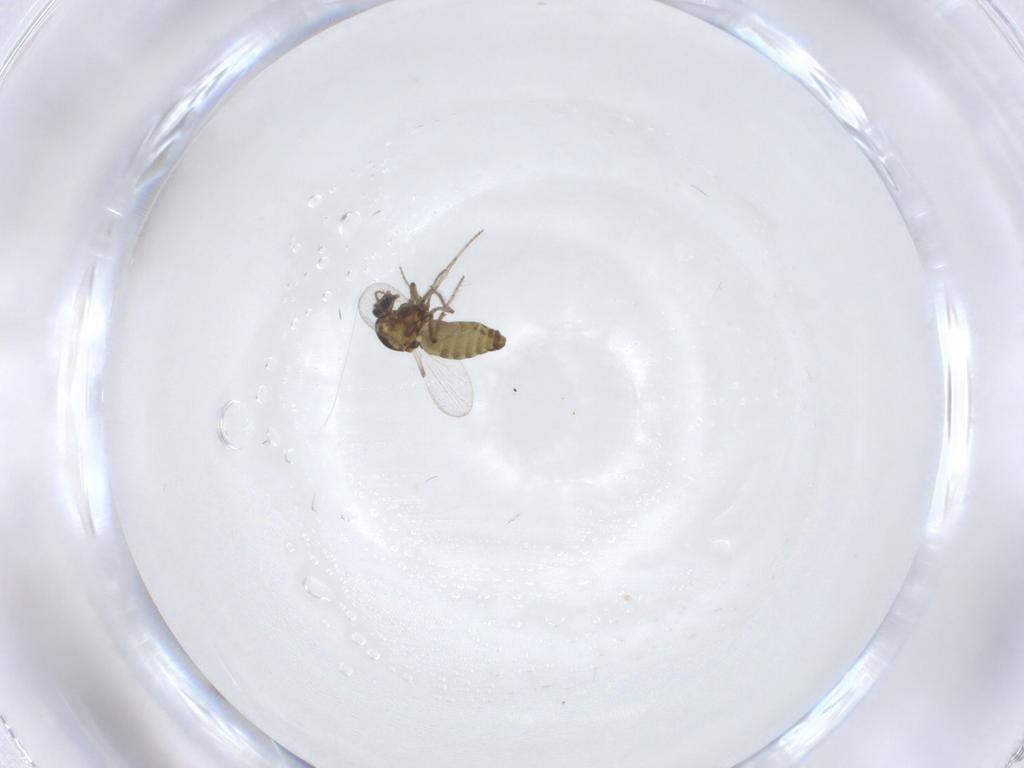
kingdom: Animalia
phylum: Arthropoda
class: Insecta
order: Diptera
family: Ceratopogonidae
